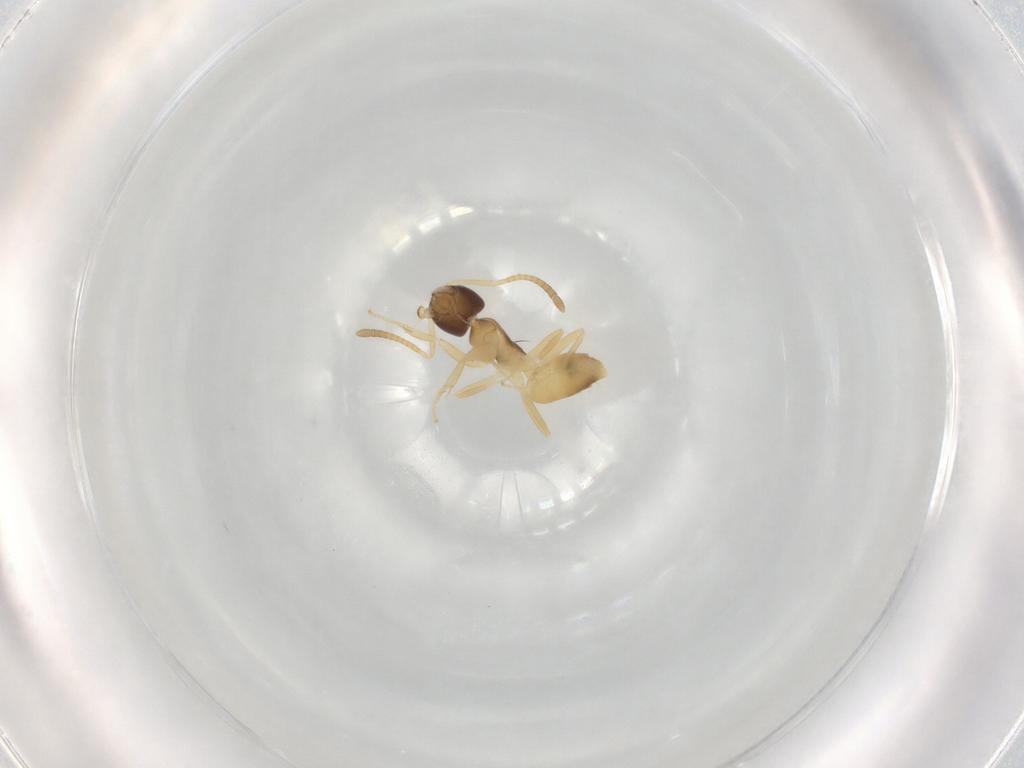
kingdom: Animalia
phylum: Arthropoda
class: Insecta
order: Hymenoptera
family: Formicidae
